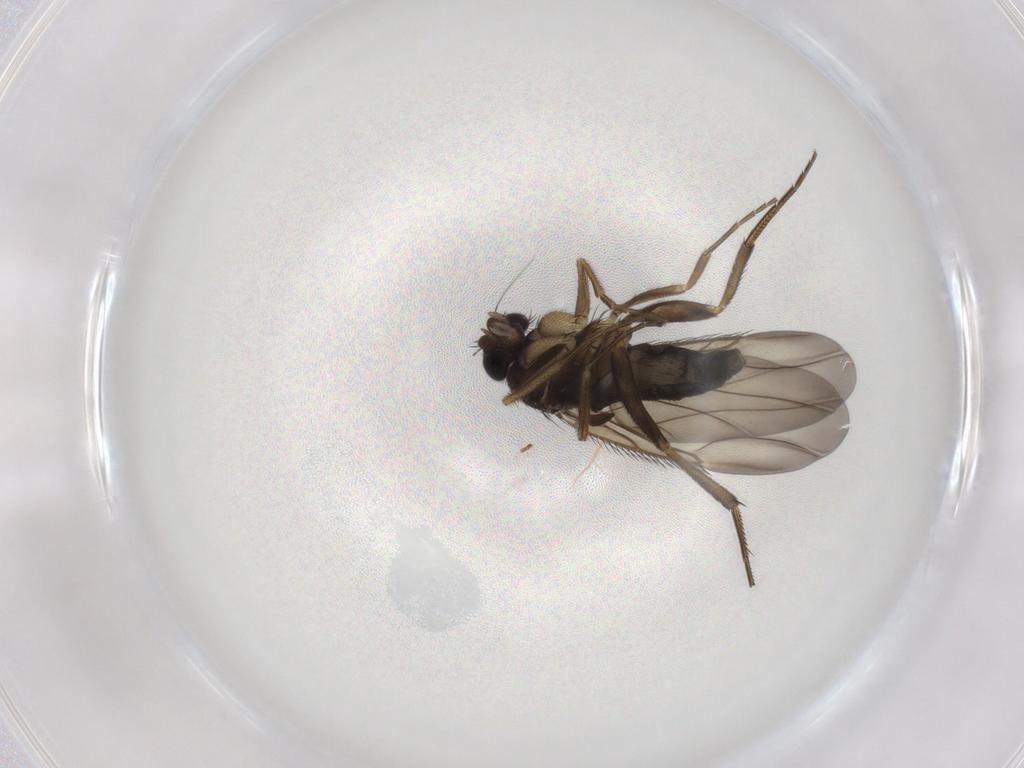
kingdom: Animalia
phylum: Arthropoda
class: Insecta
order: Diptera
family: Phoridae
